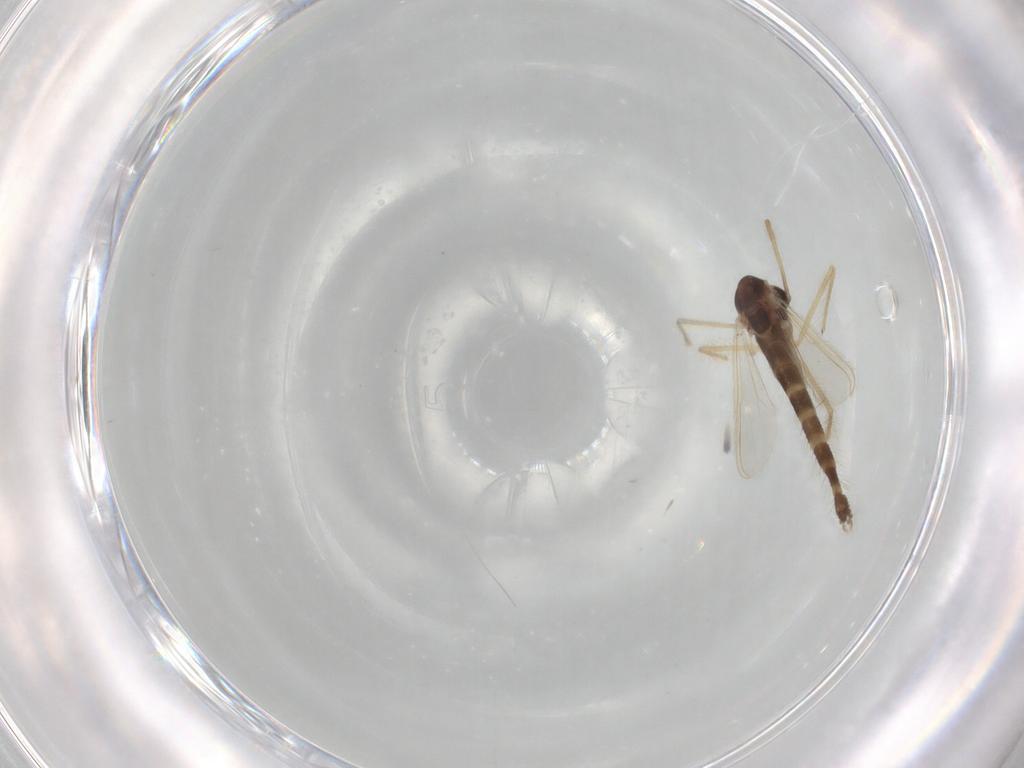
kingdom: Animalia
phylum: Arthropoda
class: Insecta
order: Diptera
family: Chironomidae
